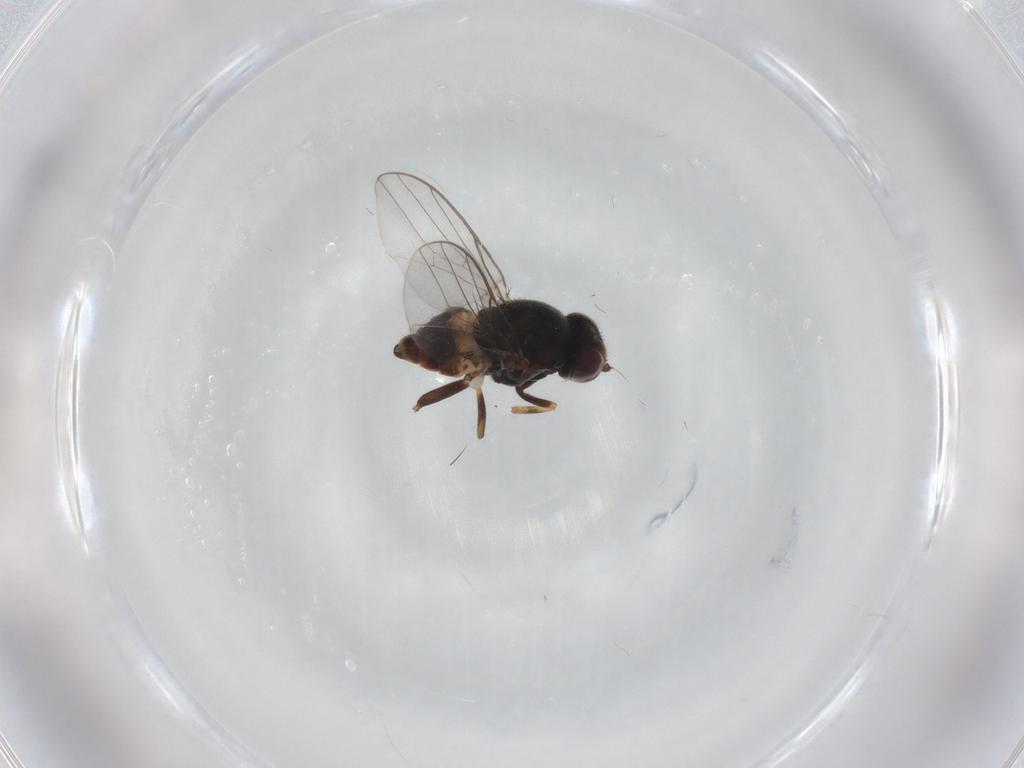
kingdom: Animalia
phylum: Arthropoda
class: Insecta
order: Diptera
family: Chloropidae
